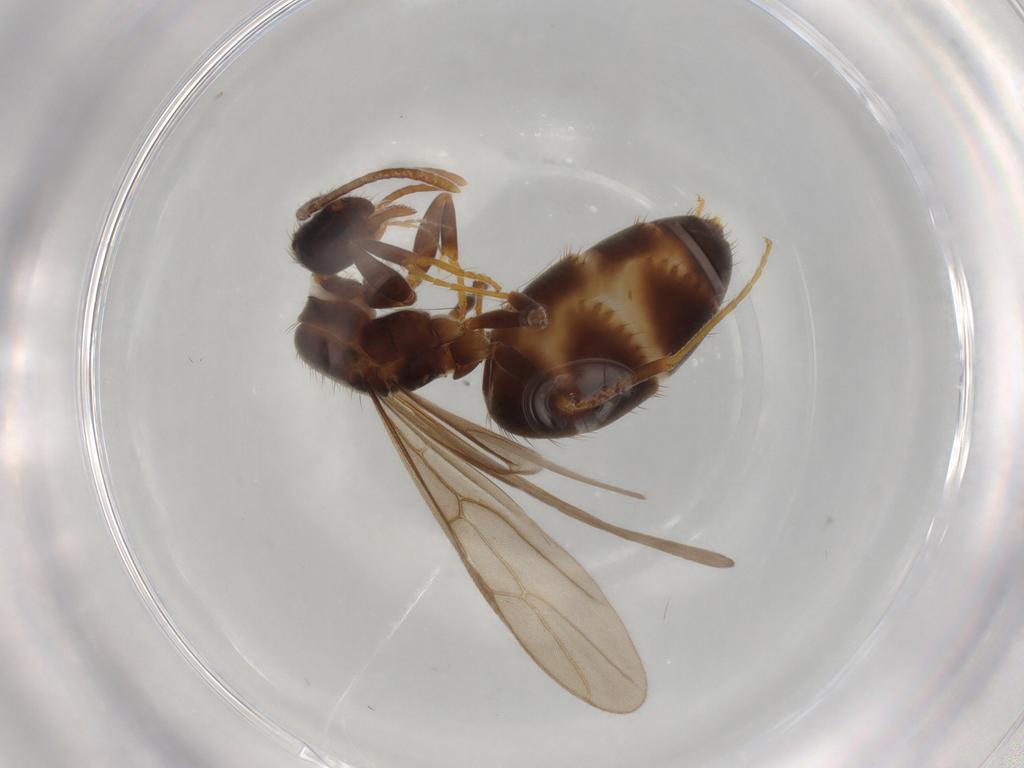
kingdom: Animalia
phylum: Arthropoda
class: Insecta
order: Hymenoptera
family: Formicidae
